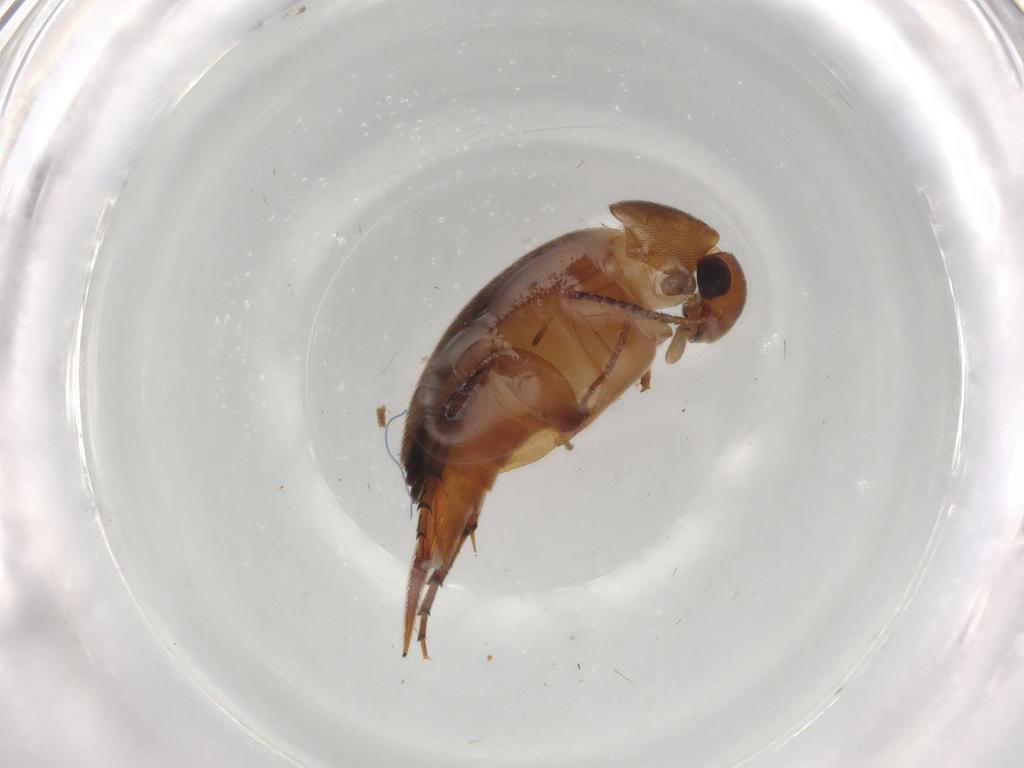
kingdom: Animalia
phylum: Arthropoda
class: Insecta
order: Coleoptera
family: Mordellidae
